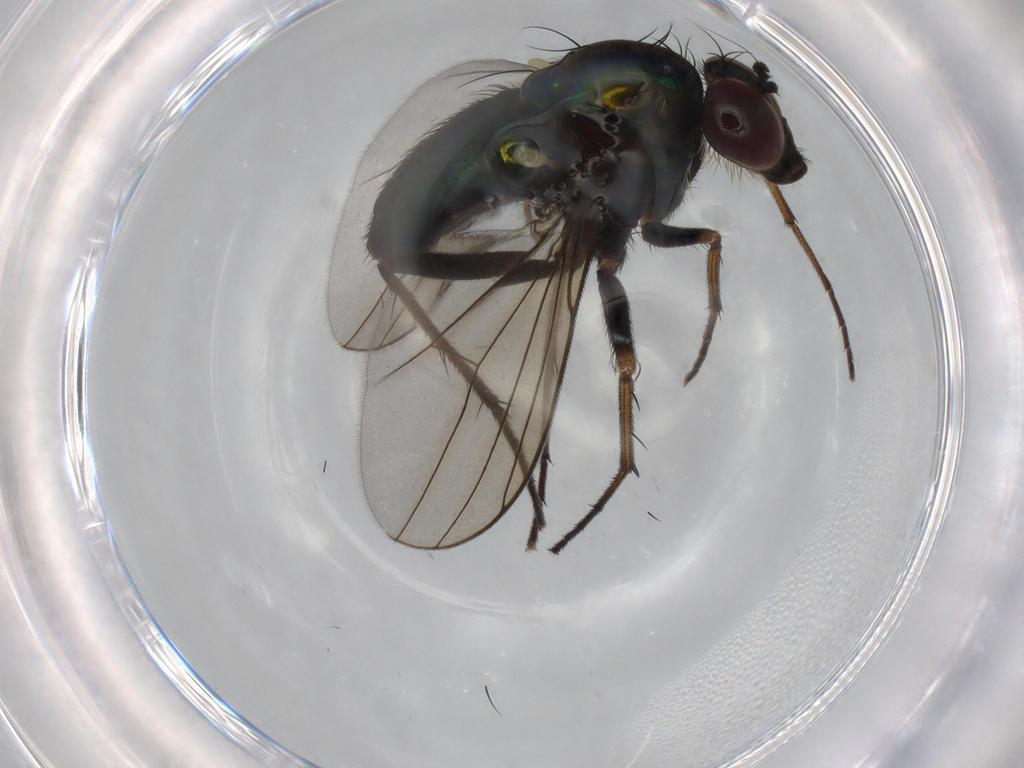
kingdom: Animalia
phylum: Arthropoda
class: Insecta
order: Diptera
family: Dolichopodidae
